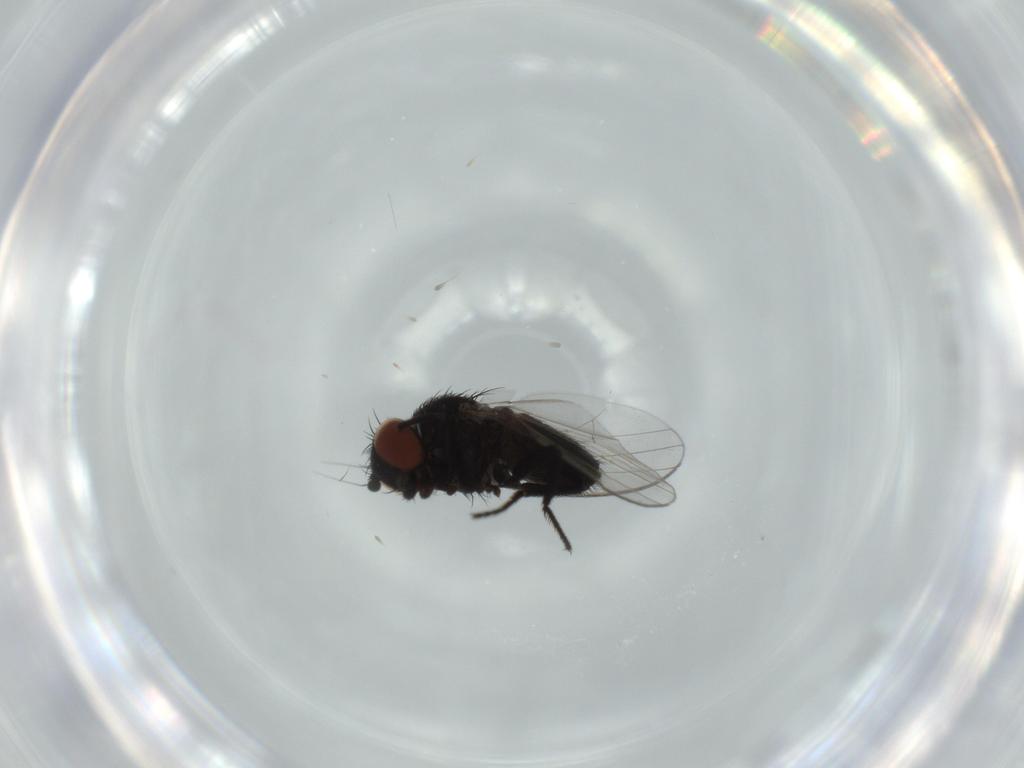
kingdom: Animalia
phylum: Arthropoda
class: Insecta
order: Diptera
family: Milichiidae
